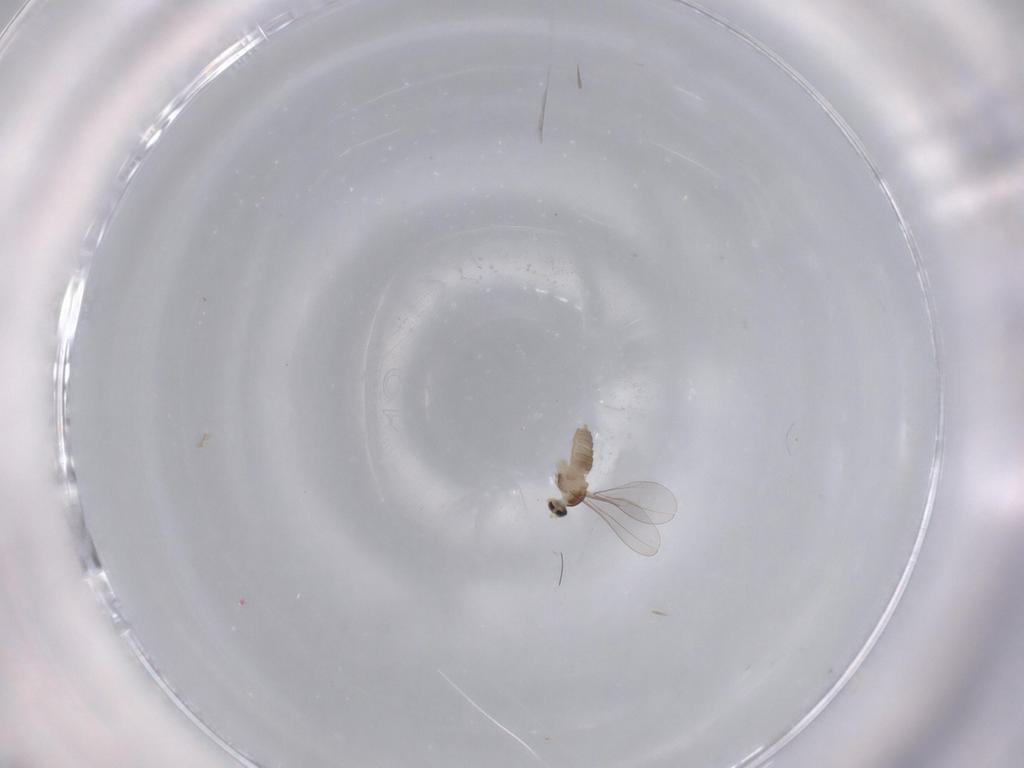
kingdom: Animalia
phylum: Arthropoda
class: Insecta
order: Diptera
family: Cecidomyiidae
